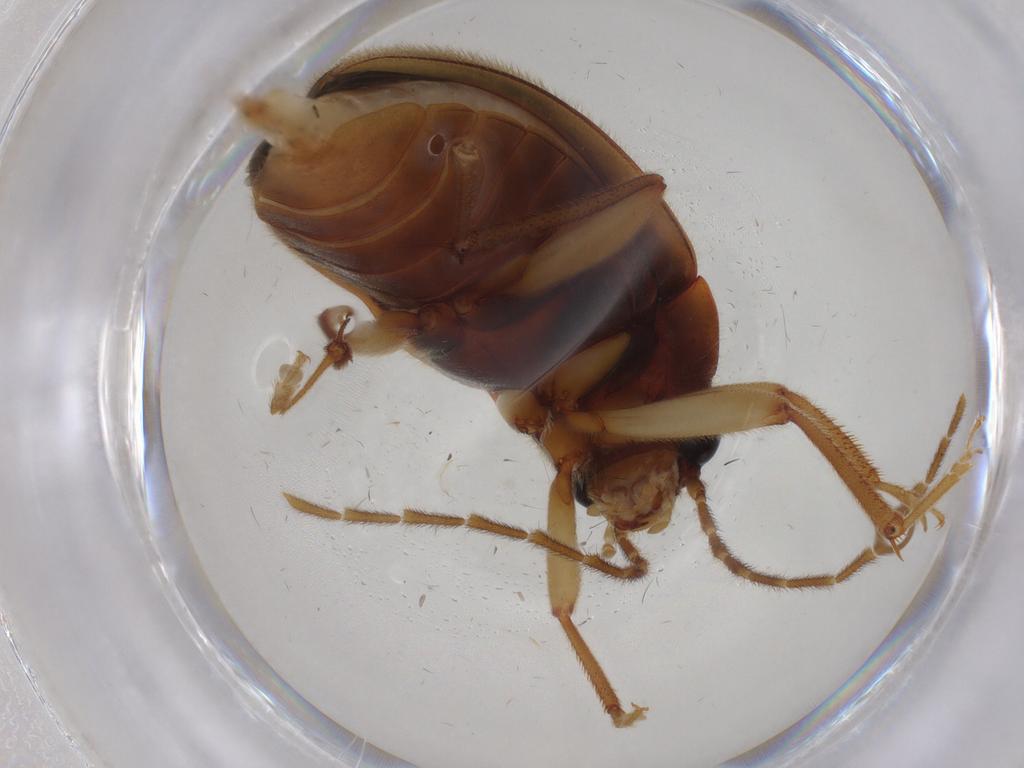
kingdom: Animalia
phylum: Arthropoda
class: Insecta
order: Coleoptera
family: Ptilodactylidae
